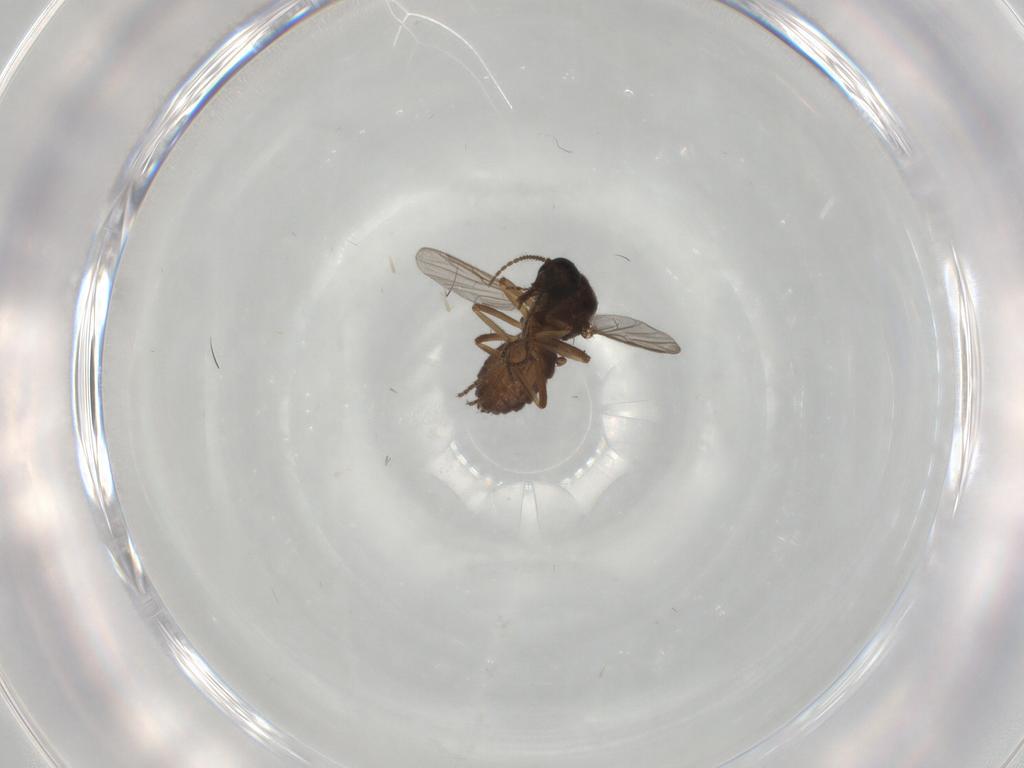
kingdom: Animalia
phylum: Arthropoda
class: Insecta
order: Diptera
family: Ceratopogonidae
